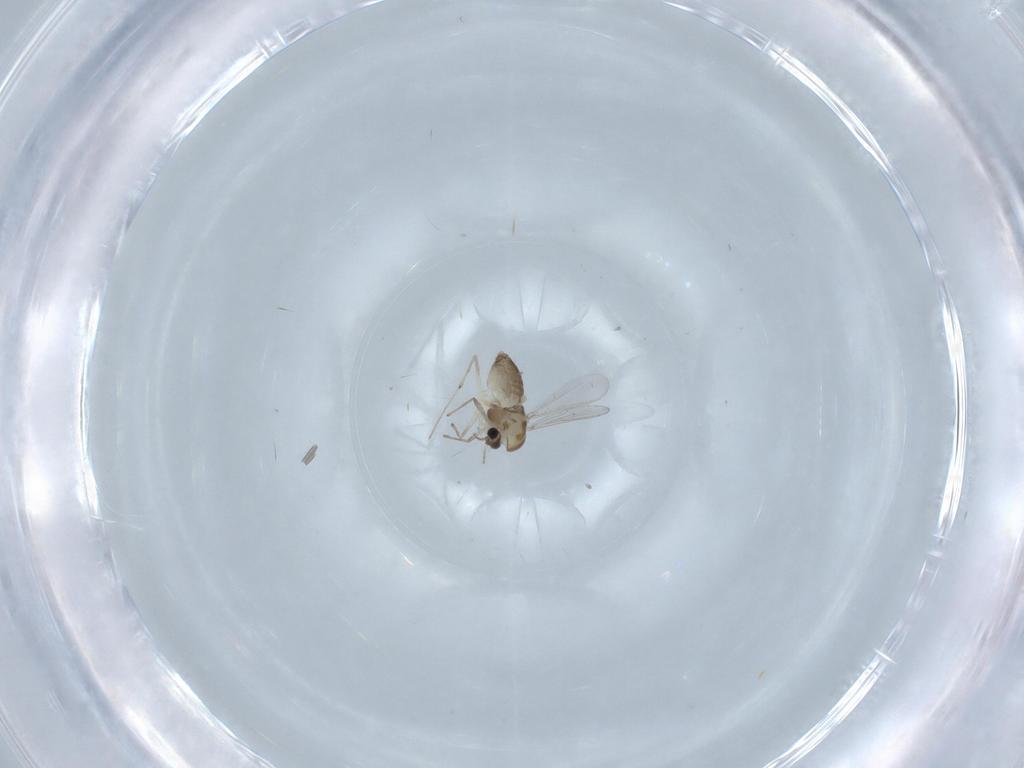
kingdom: Animalia
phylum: Arthropoda
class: Insecta
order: Diptera
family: Chironomidae
